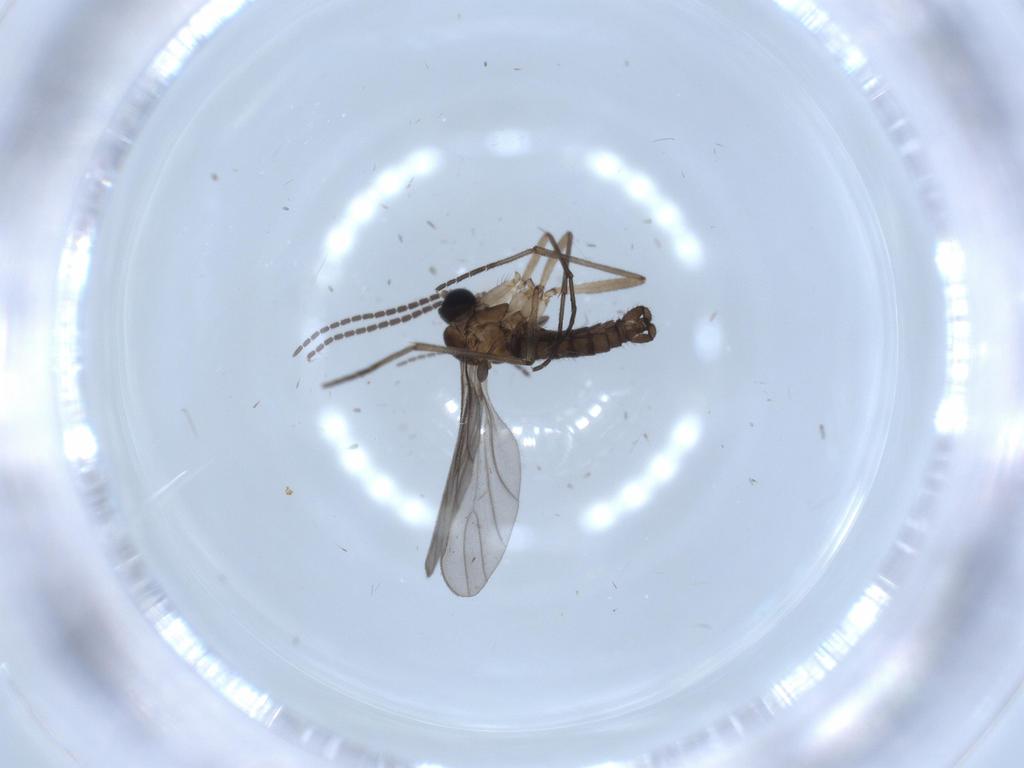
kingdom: Animalia
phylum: Arthropoda
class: Insecta
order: Diptera
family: Sciaridae
